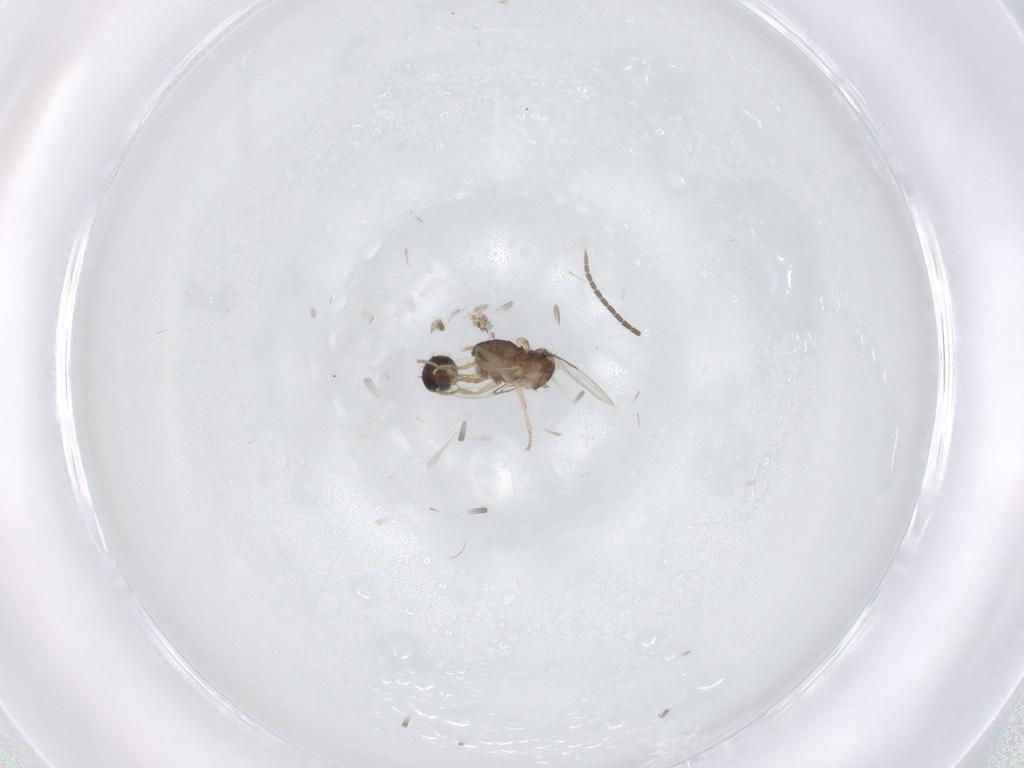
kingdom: Animalia
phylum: Arthropoda
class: Insecta
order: Diptera
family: Phoridae
